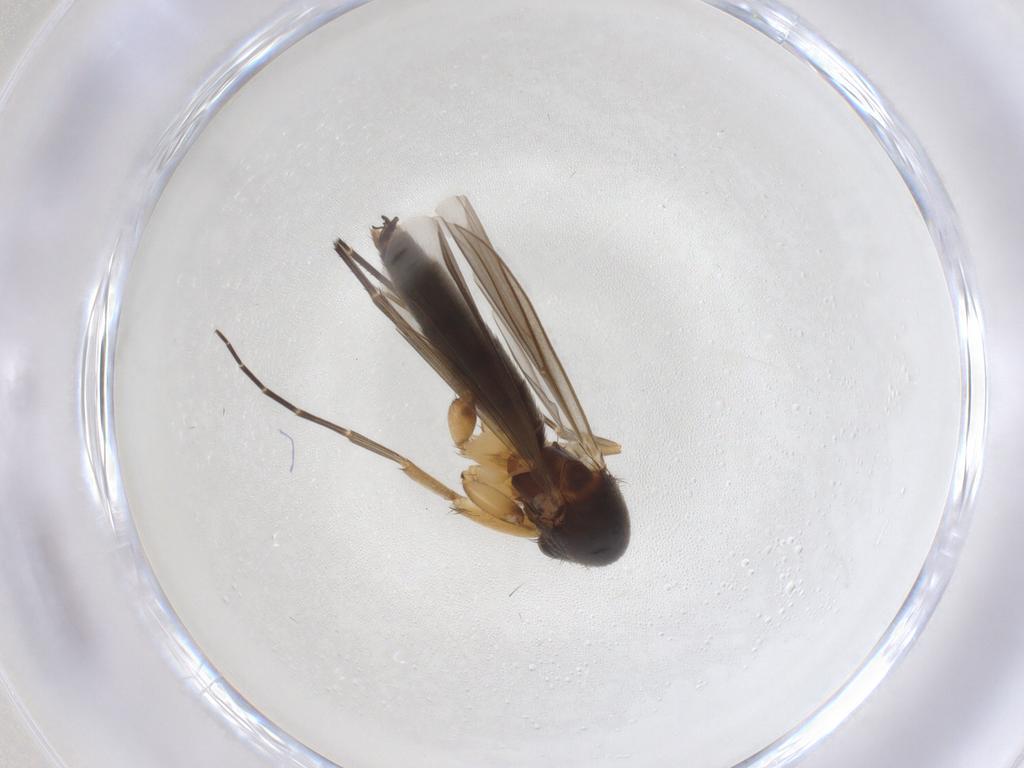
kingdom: Animalia
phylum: Arthropoda
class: Insecta
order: Diptera
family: Mycetophilidae
